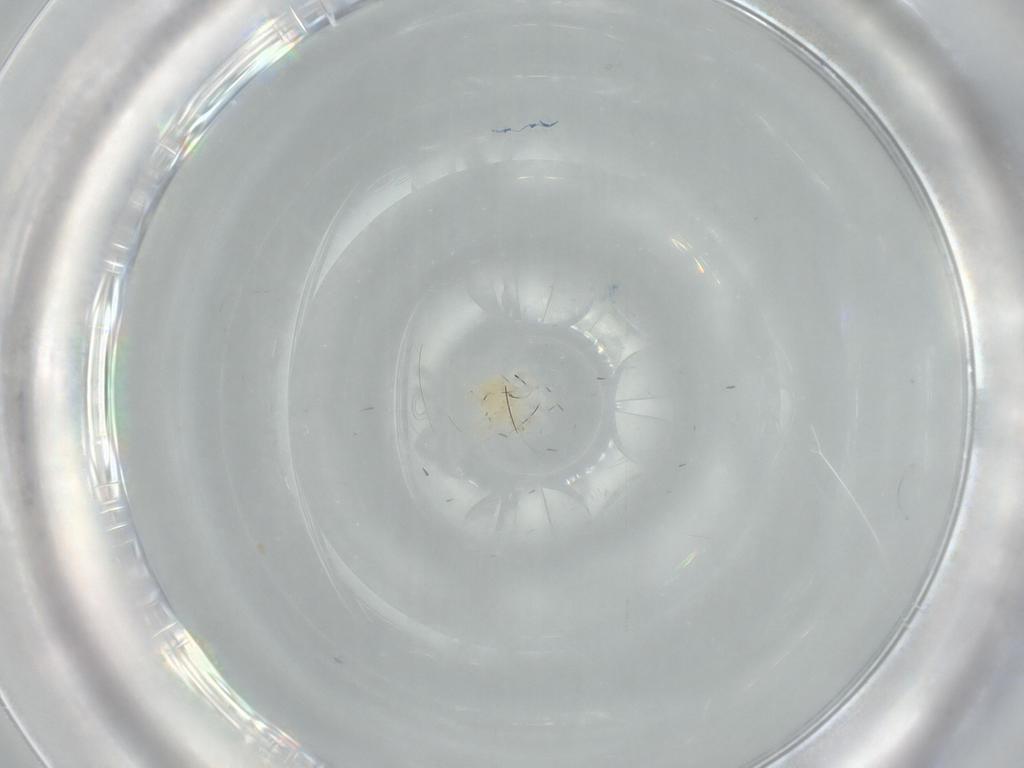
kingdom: Animalia
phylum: Arthropoda
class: Arachnida
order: Trombidiformes
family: Anystidae
